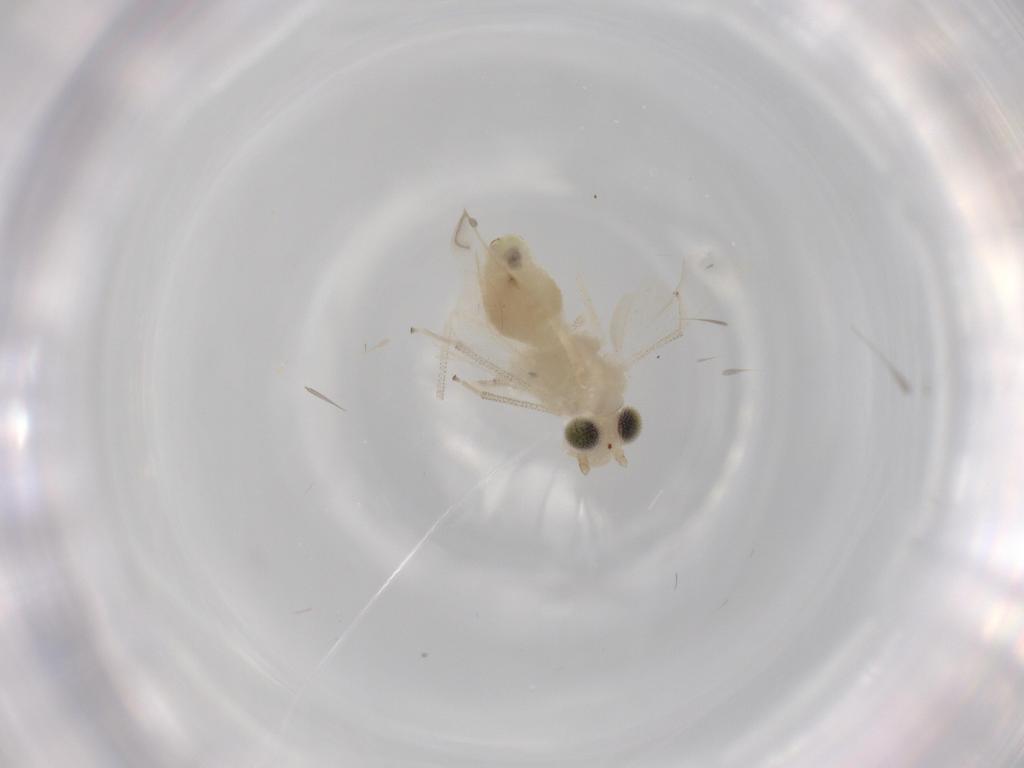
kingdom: Animalia
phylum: Arthropoda
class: Insecta
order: Psocodea
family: Caeciliusidae
